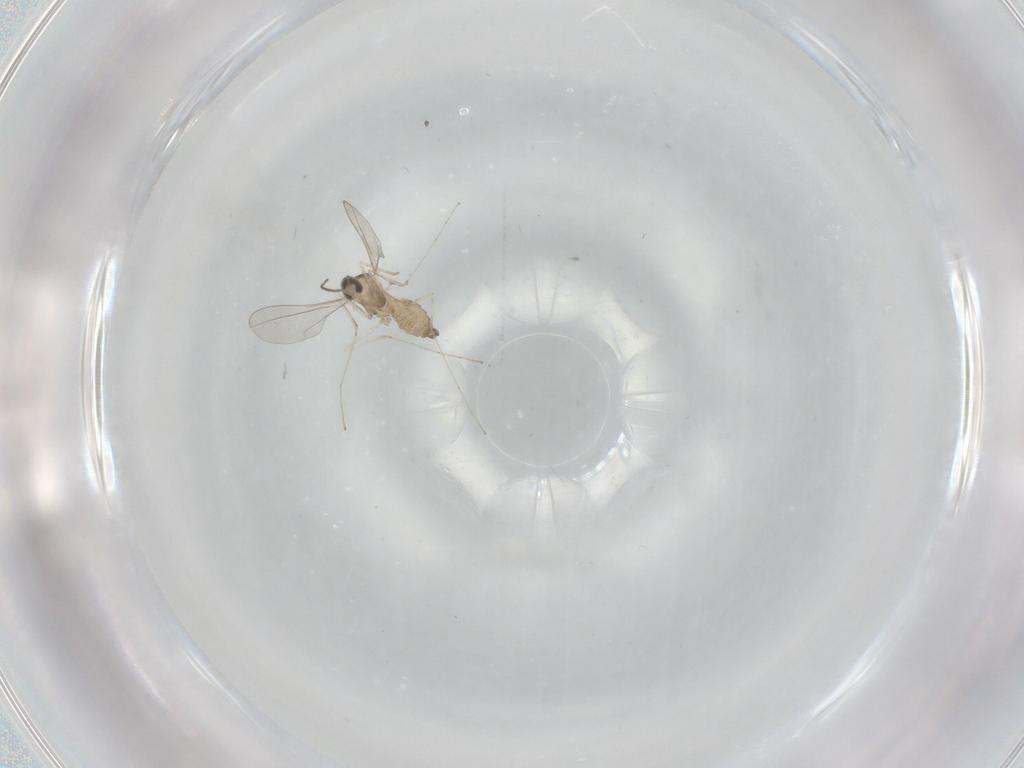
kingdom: Animalia
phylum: Arthropoda
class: Insecta
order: Diptera
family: Cecidomyiidae
